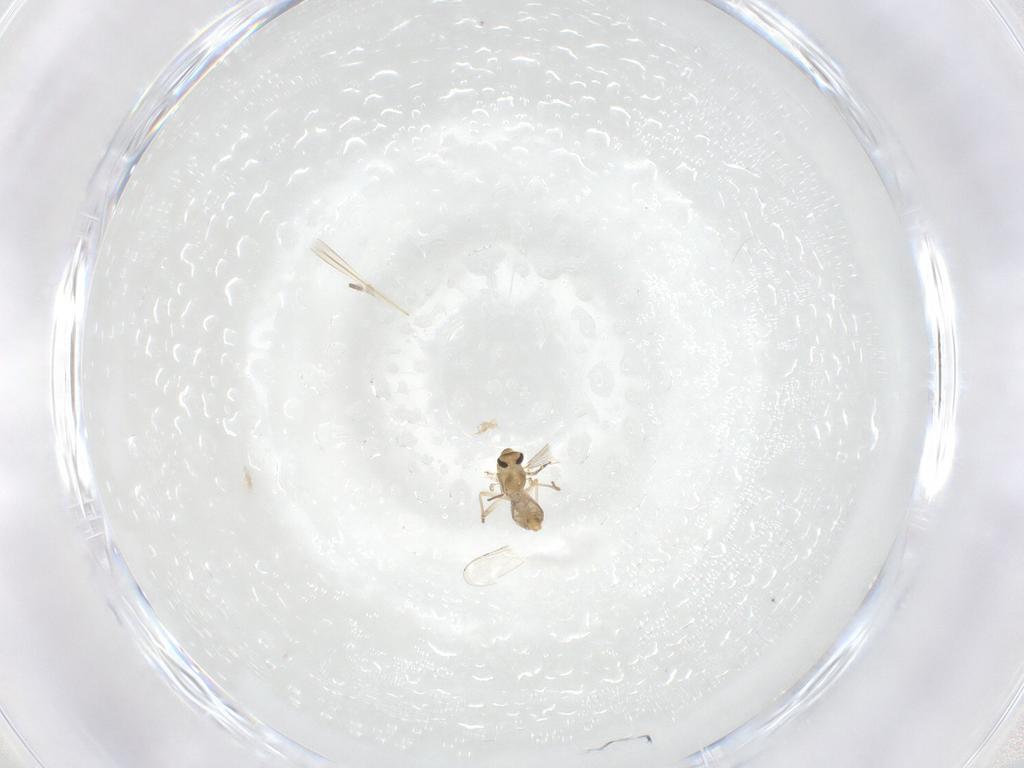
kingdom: Animalia
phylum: Arthropoda
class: Insecta
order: Diptera
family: Chironomidae
